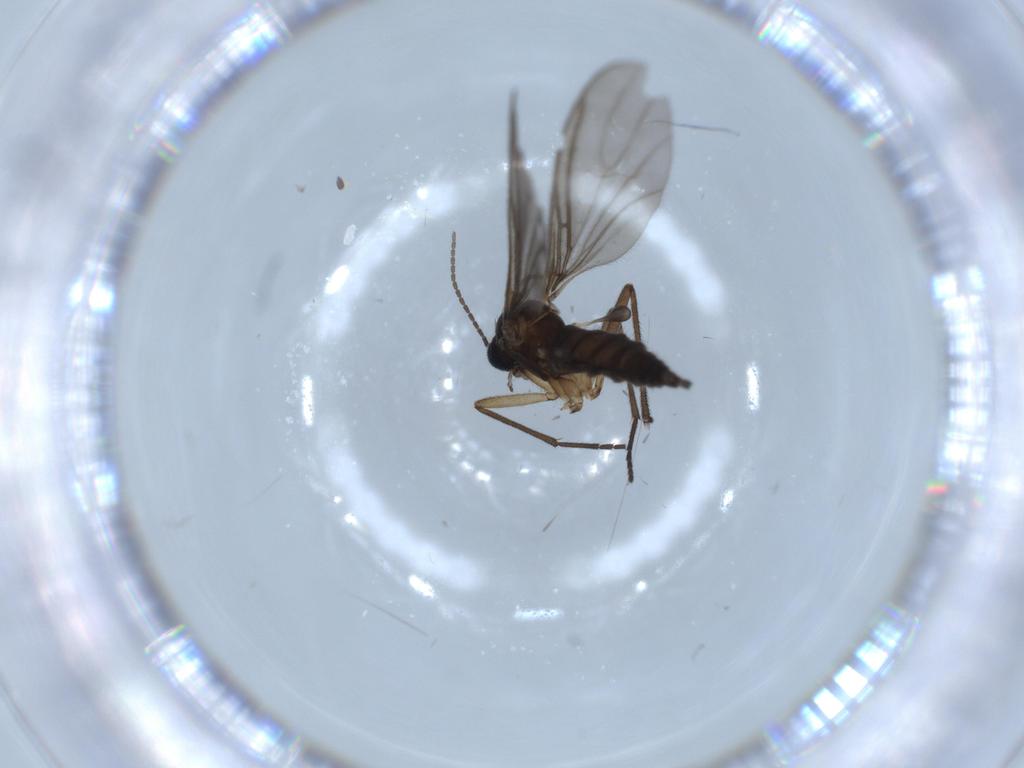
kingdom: Animalia
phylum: Arthropoda
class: Insecta
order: Diptera
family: Sciaridae
